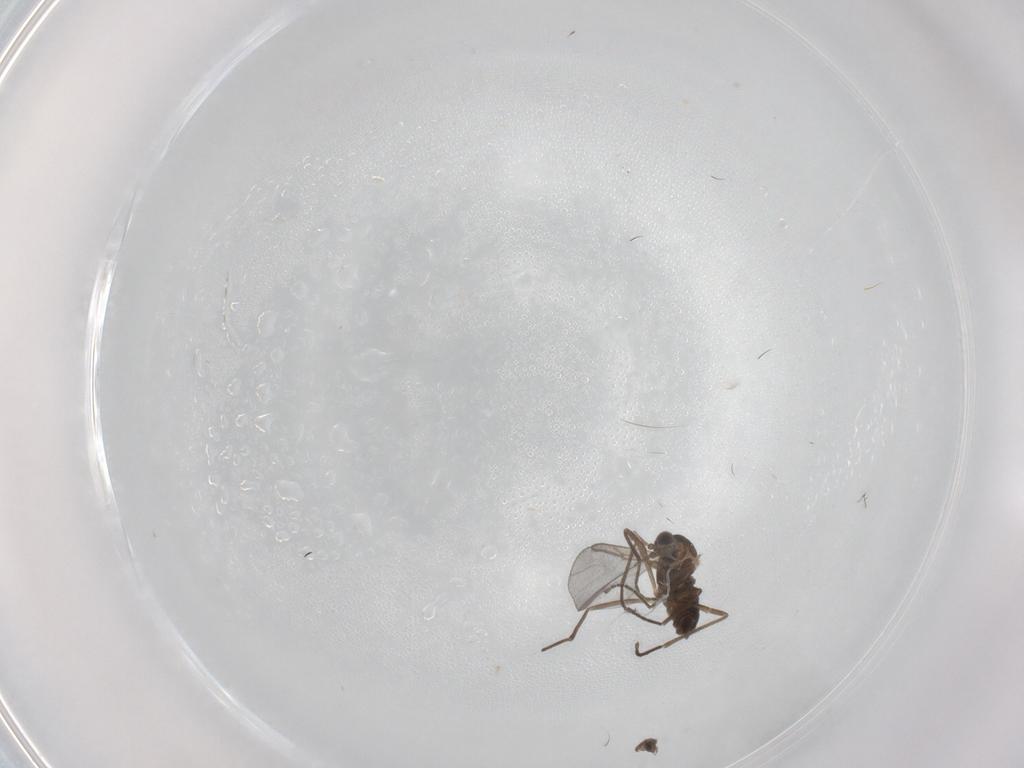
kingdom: Animalia
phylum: Arthropoda
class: Insecta
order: Diptera
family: Cecidomyiidae
